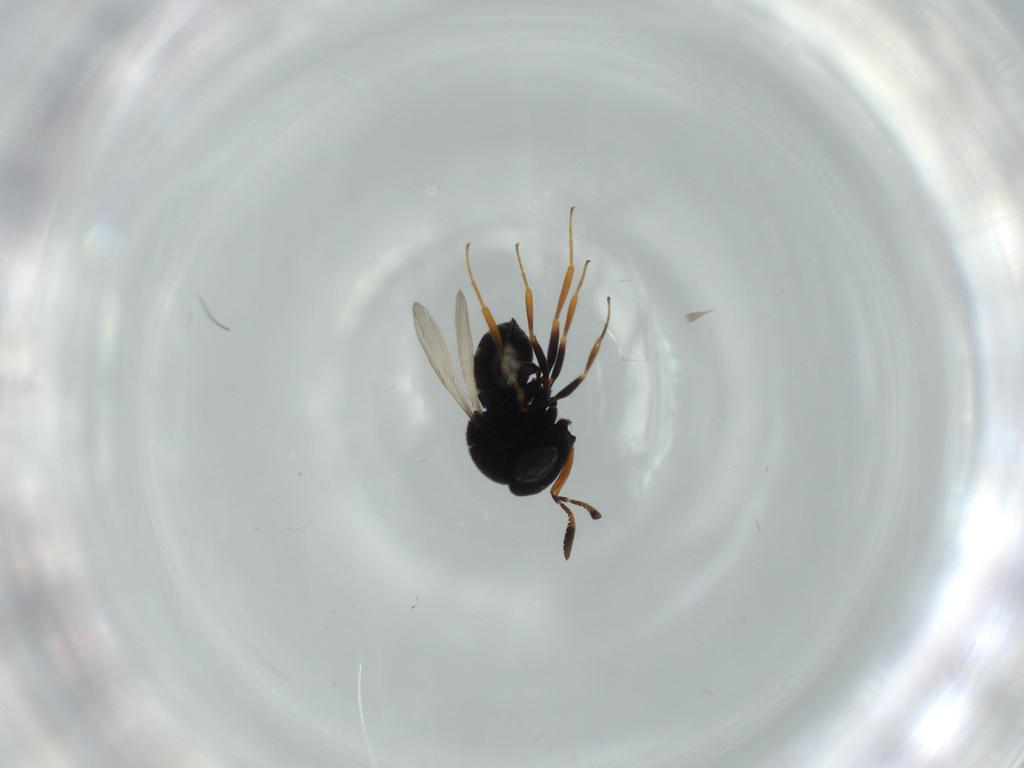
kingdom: Animalia
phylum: Arthropoda
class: Insecta
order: Hymenoptera
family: Scelionidae
